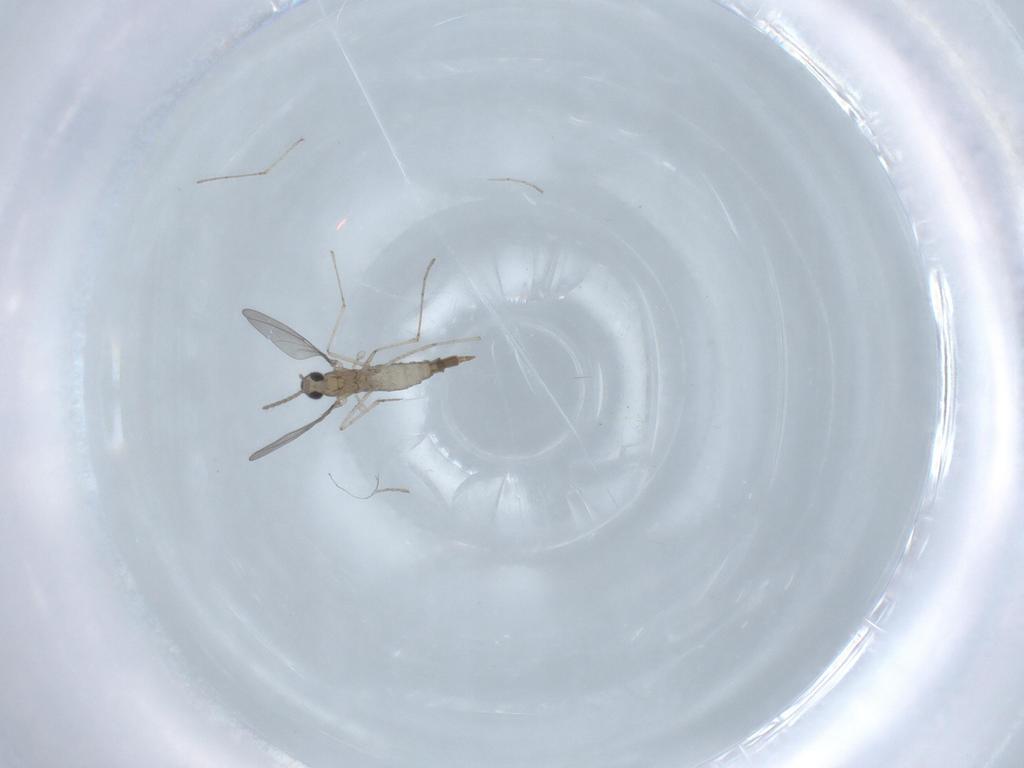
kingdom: Animalia
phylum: Arthropoda
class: Insecta
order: Diptera
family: Cecidomyiidae
